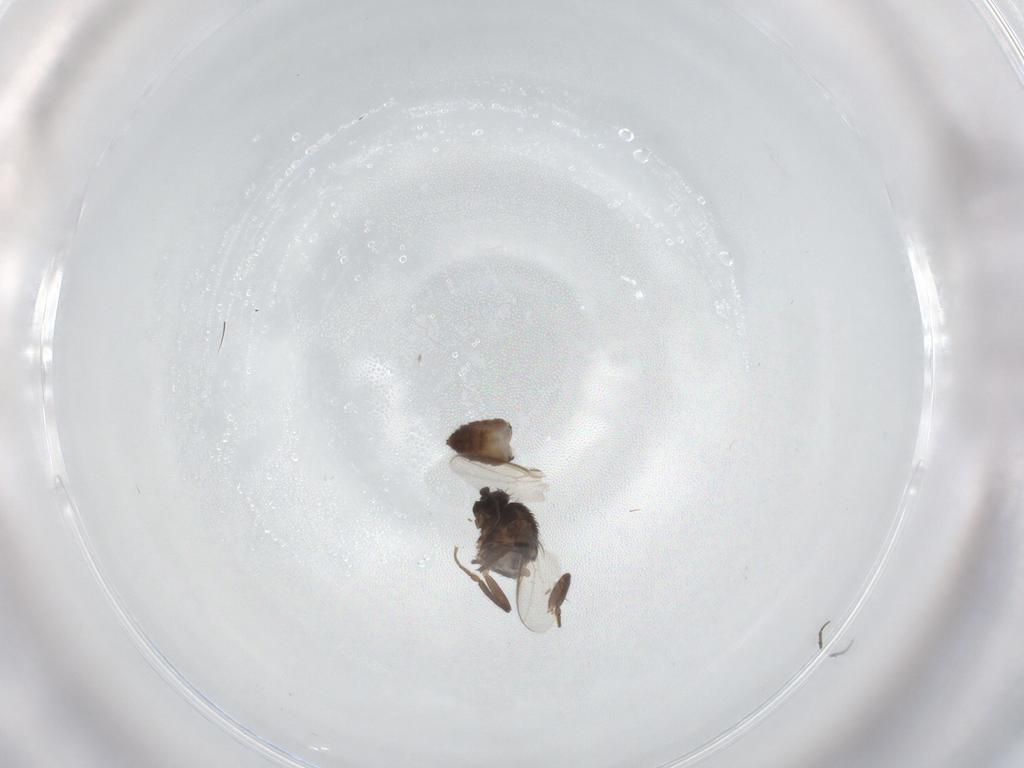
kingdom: Animalia
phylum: Arthropoda
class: Insecta
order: Diptera
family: Sphaeroceridae
